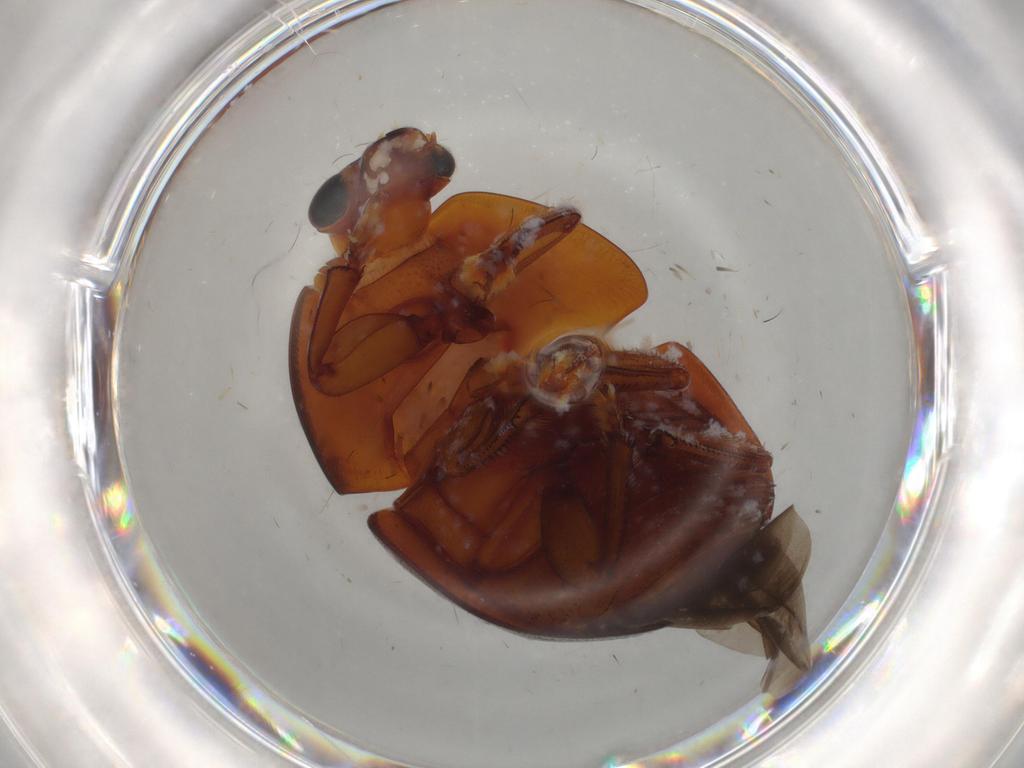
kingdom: Animalia
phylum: Arthropoda
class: Insecta
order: Coleoptera
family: Nitidulidae
